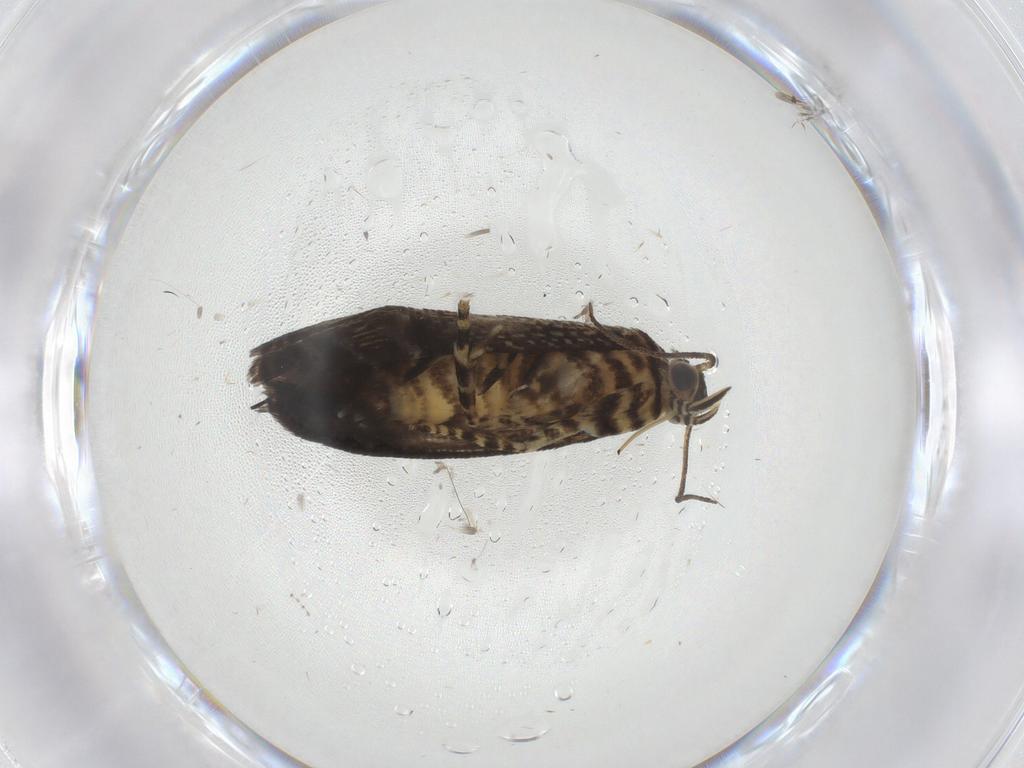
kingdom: Animalia
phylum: Arthropoda
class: Insecta
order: Lepidoptera
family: Geometridae
